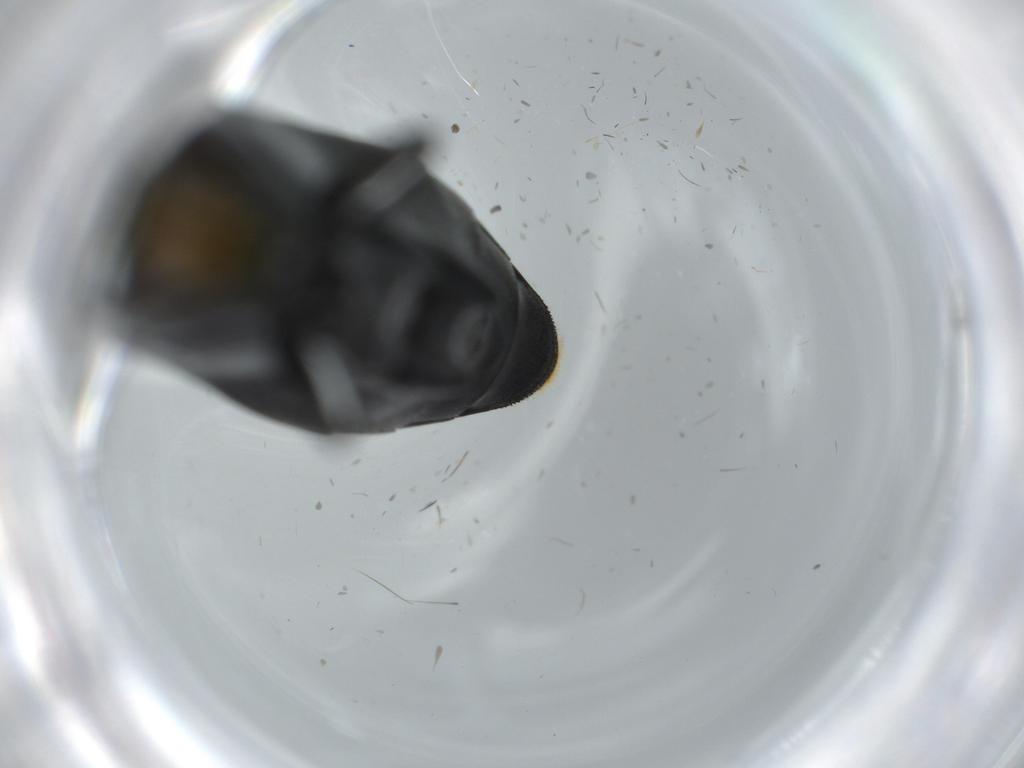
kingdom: Animalia
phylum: Arthropoda
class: Insecta
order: Coleoptera
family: Buprestidae
